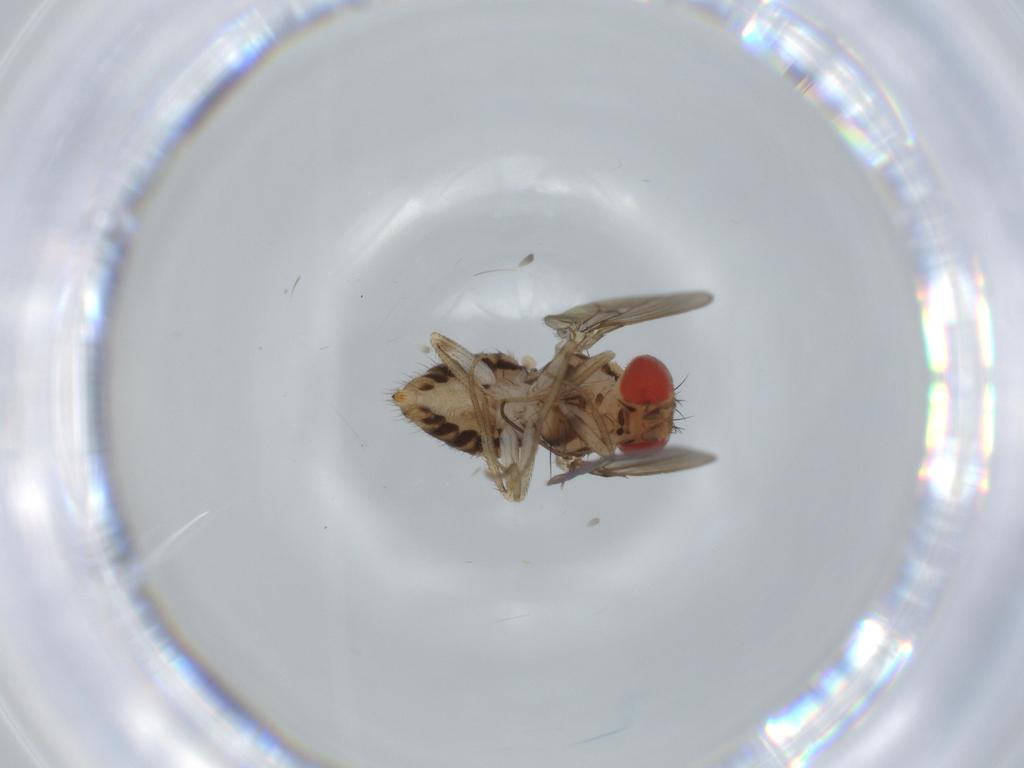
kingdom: Animalia
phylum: Arthropoda
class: Insecta
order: Diptera
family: Drosophilidae
